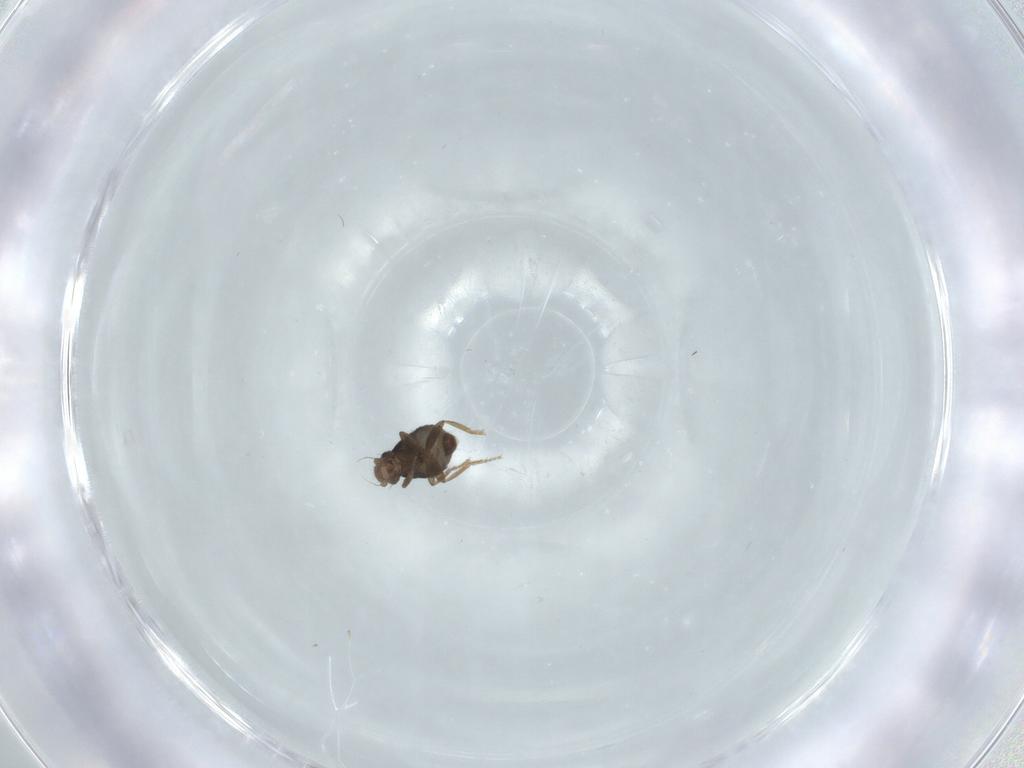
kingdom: Animalia
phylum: Arthropoda
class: Insecta
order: Diptera
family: Phoridae
